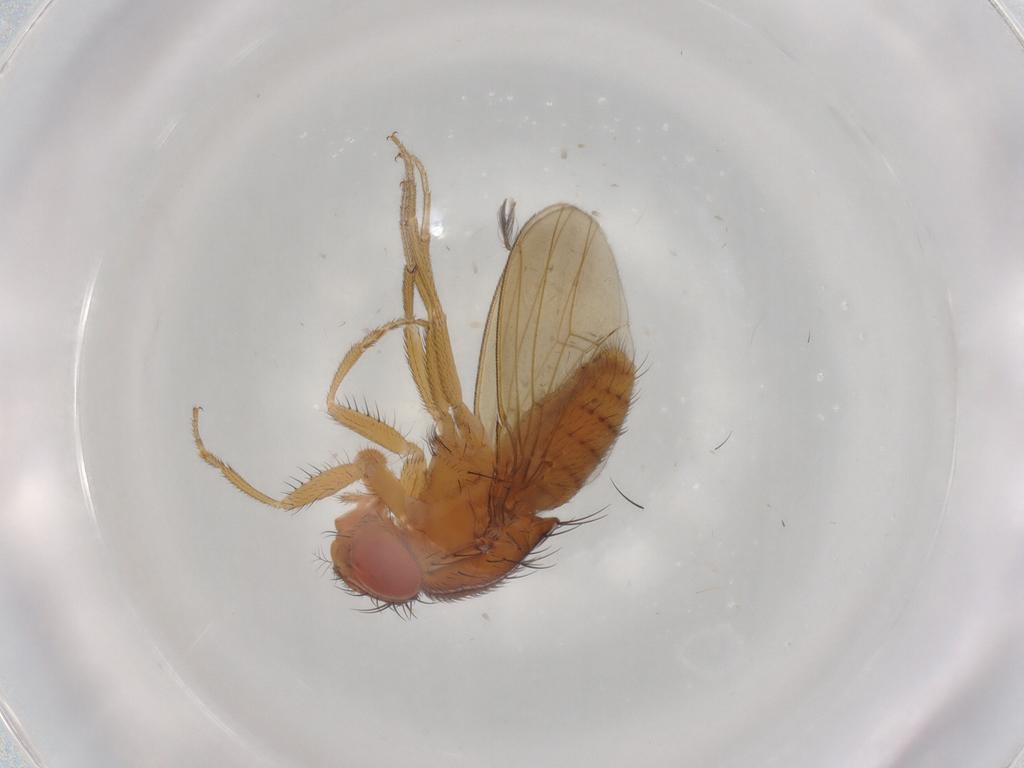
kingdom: Animalia
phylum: Arthropoda
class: Insecta
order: Diptera
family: Drosophilidae
